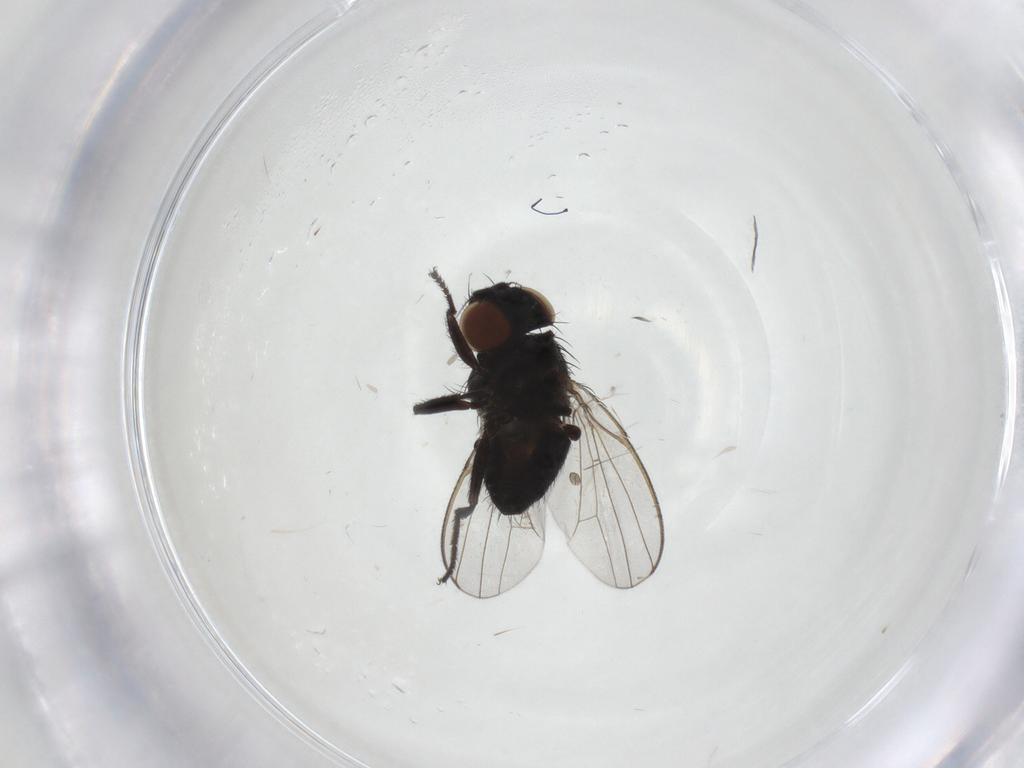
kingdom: Animalia
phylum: Arthropoda
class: Insecta
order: Diptera
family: Milichiidae
